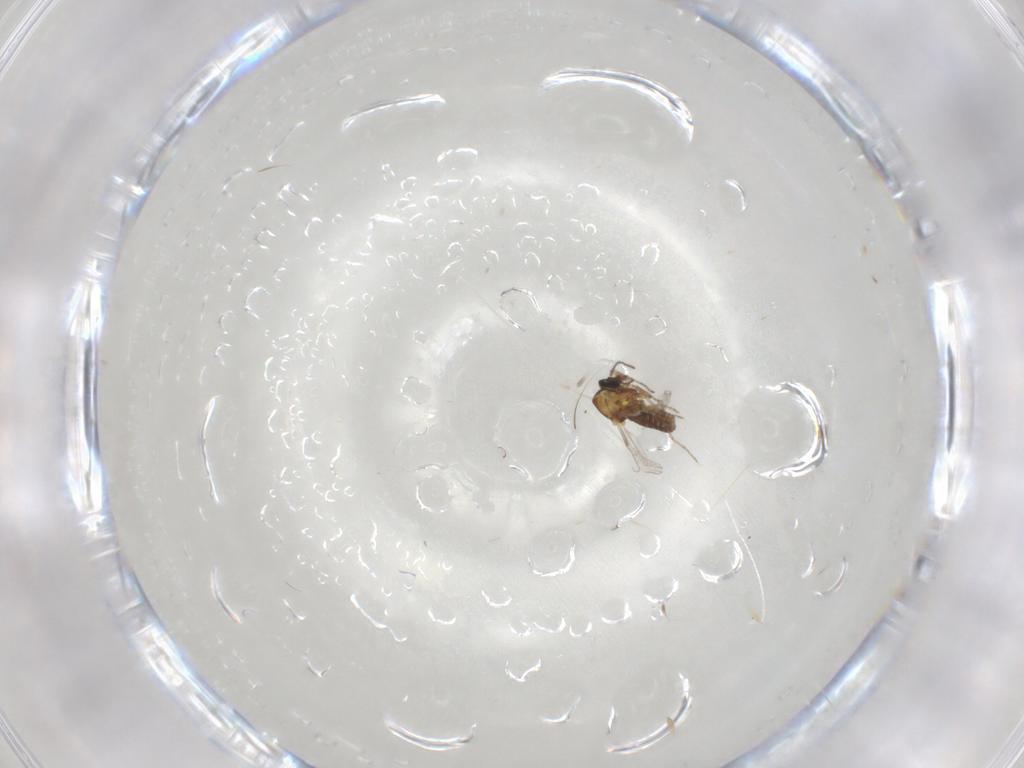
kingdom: Animalia
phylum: Arthropoda
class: Insecta
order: Diptera
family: Ceratopogonidae
